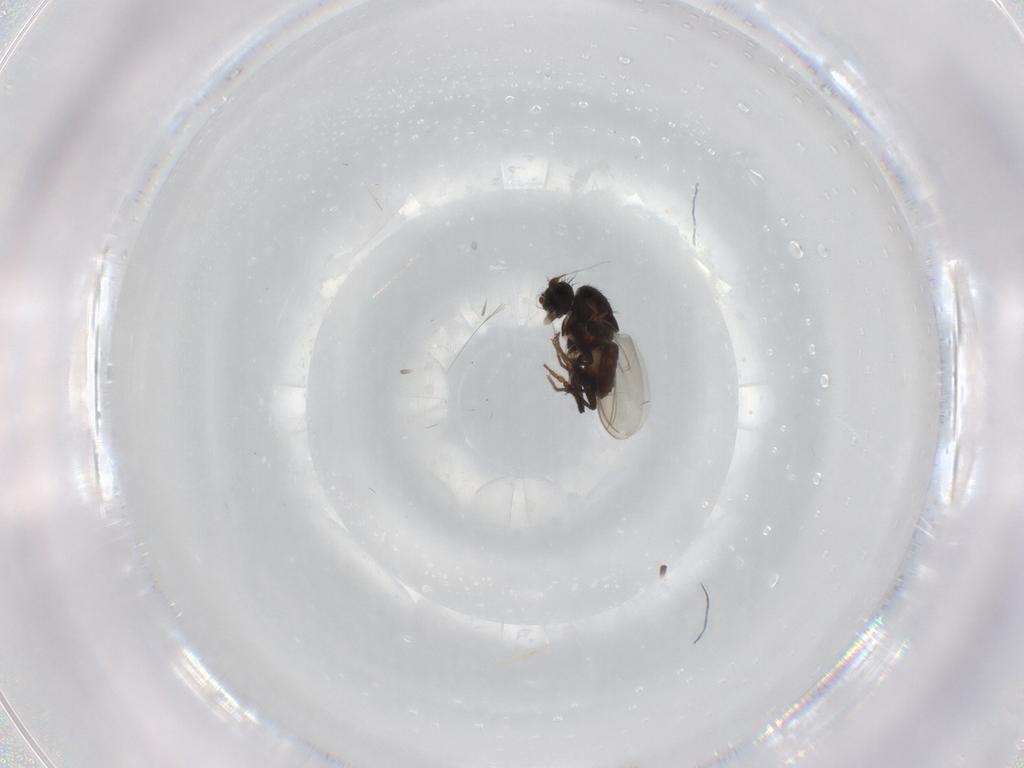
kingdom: Animalia
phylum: Arthropoda
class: Insecta
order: Diptera
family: Sphaeroceridae
